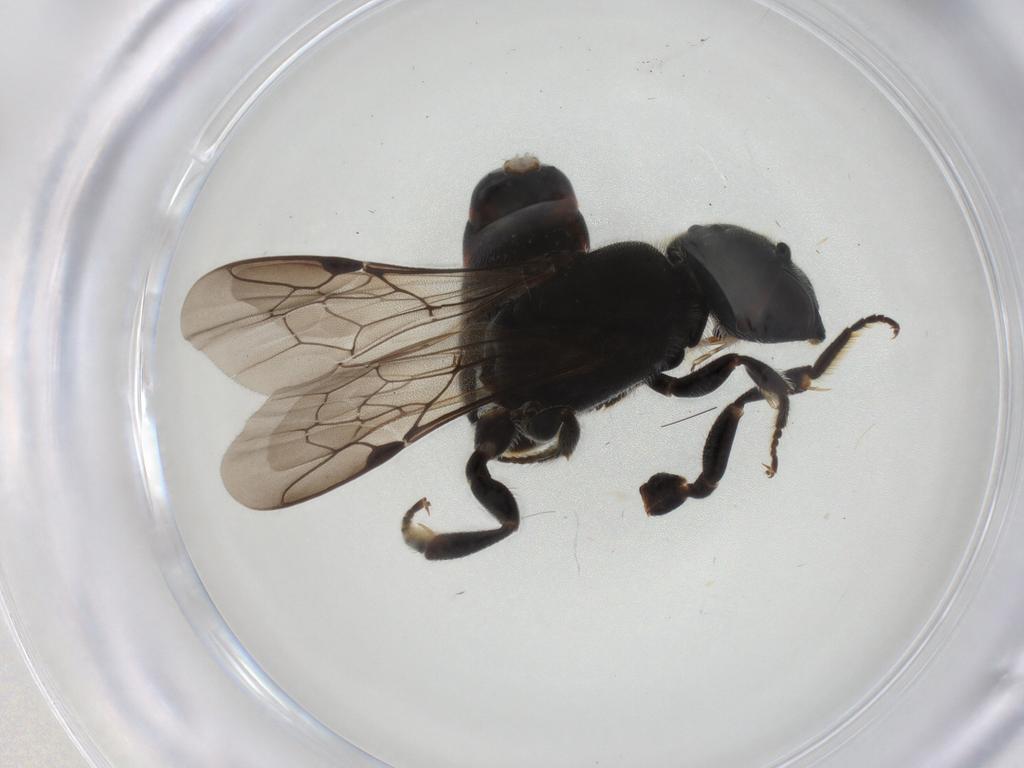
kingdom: Animalia
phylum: Arthropoda
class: Insecta
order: Hymenoptera
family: Megachilidae
